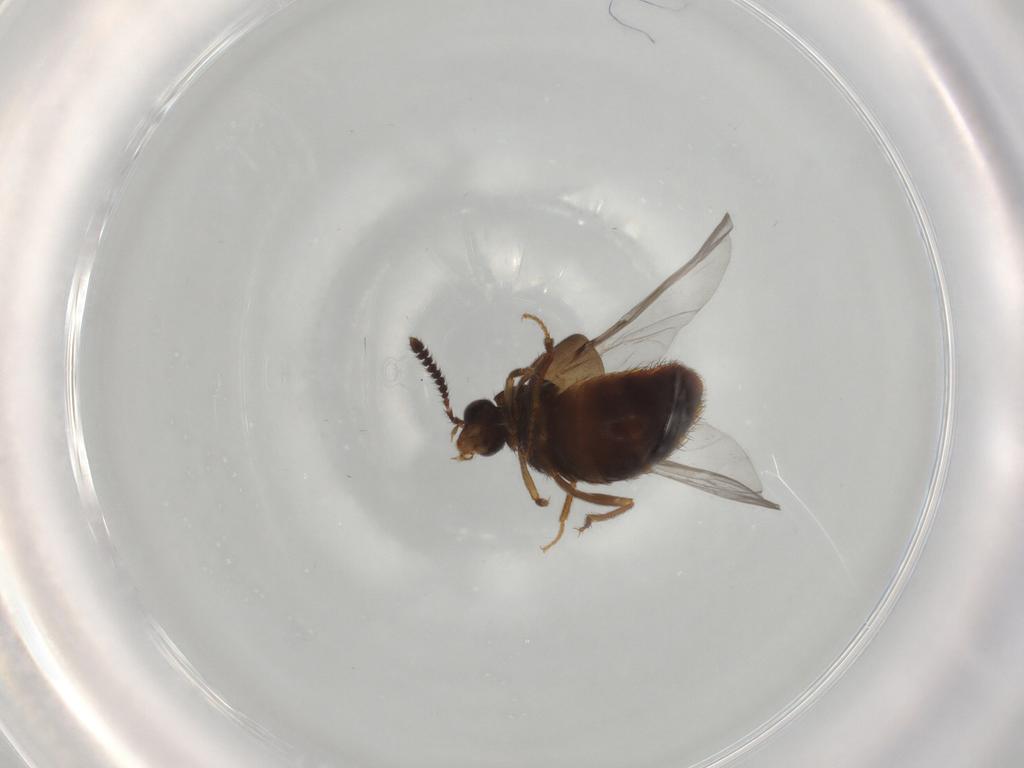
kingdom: Animalia
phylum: Arthropoda
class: Insecta
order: Coleoptera
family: Staphylinidae
